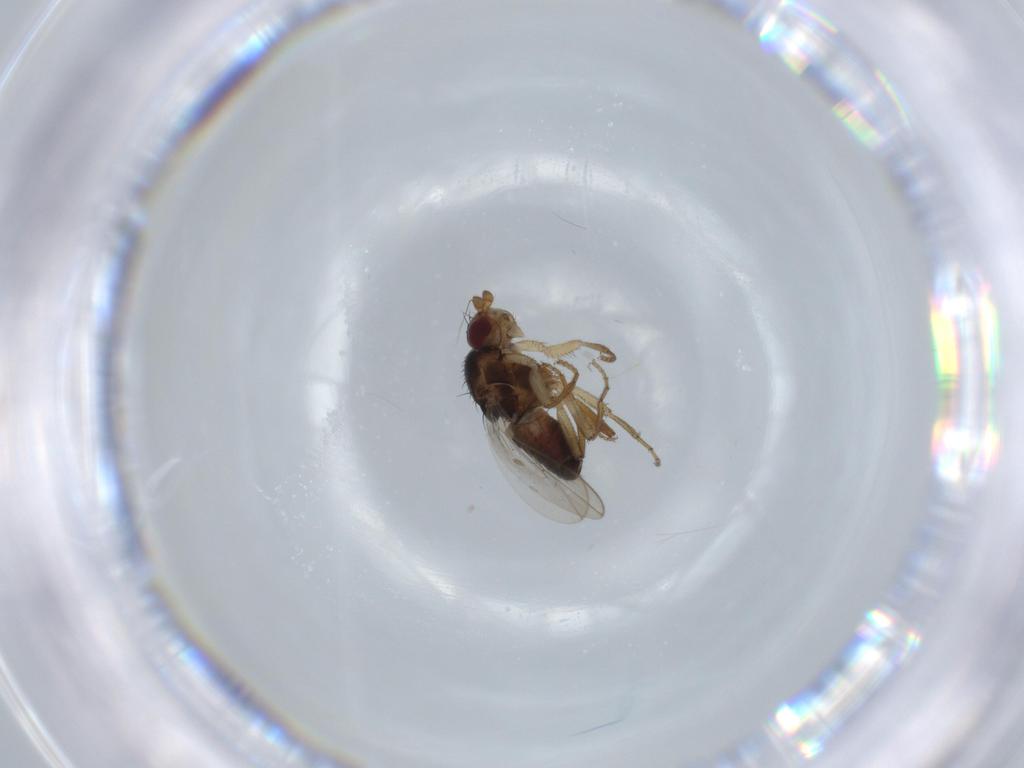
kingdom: Animalia
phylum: Arthropoda
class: Insecta
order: Diptera
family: Sphaeroceridae
